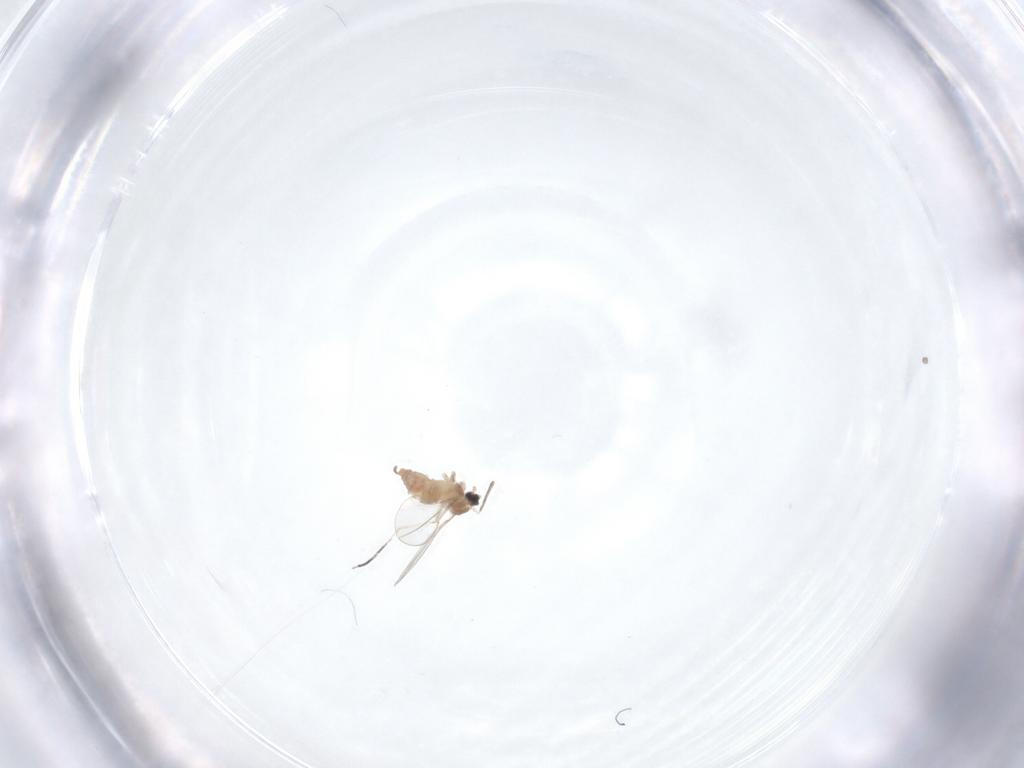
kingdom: Animalia
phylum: Arthropoda
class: Insecta
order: Diptera
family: Cecidomyiidae
